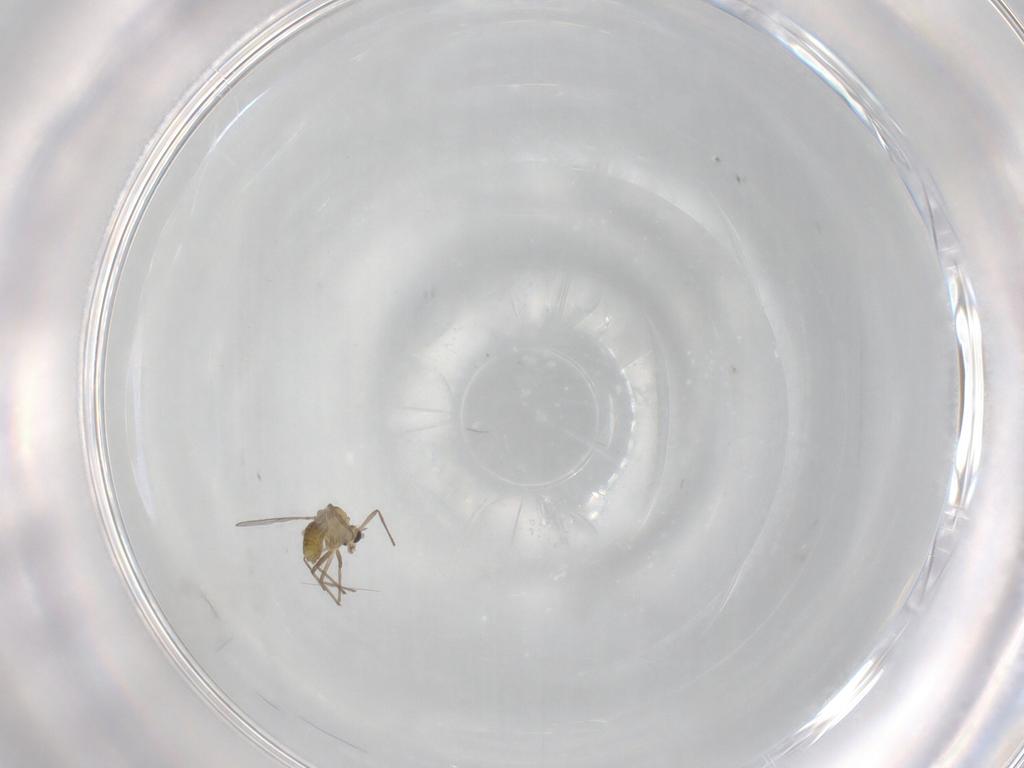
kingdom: Animalia
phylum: Arthropoda
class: Insecta
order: Diptera
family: Chironomidae
